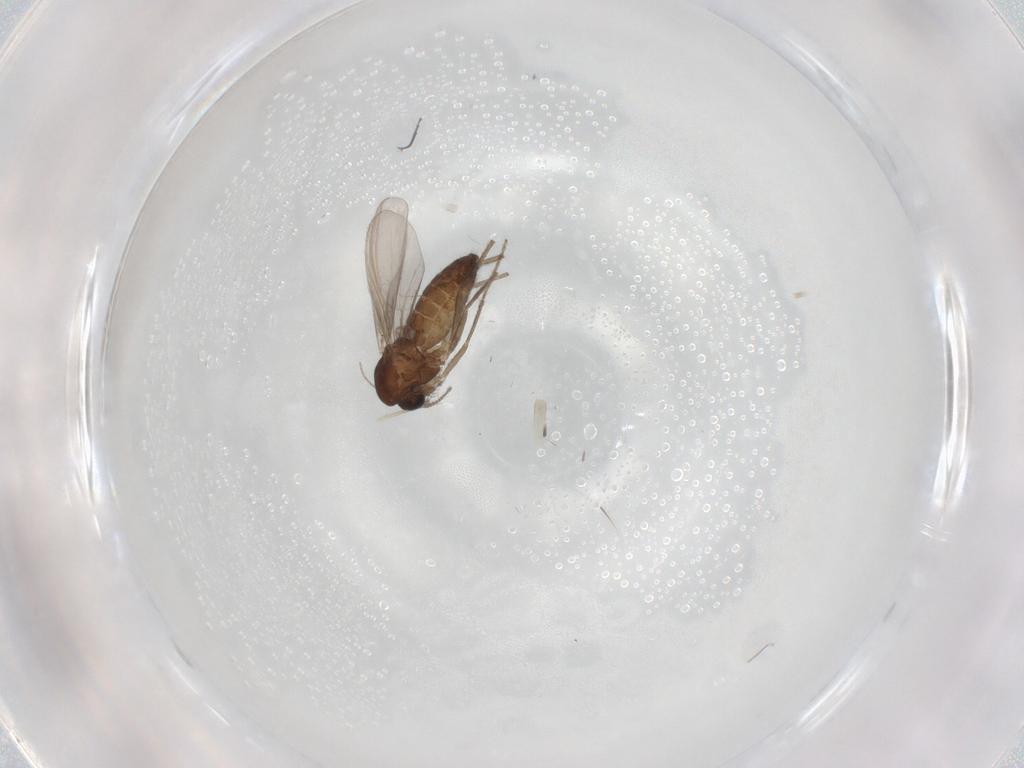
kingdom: Animalia
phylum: Arthropoda
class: Insecta
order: Diptera
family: Chironomidae
